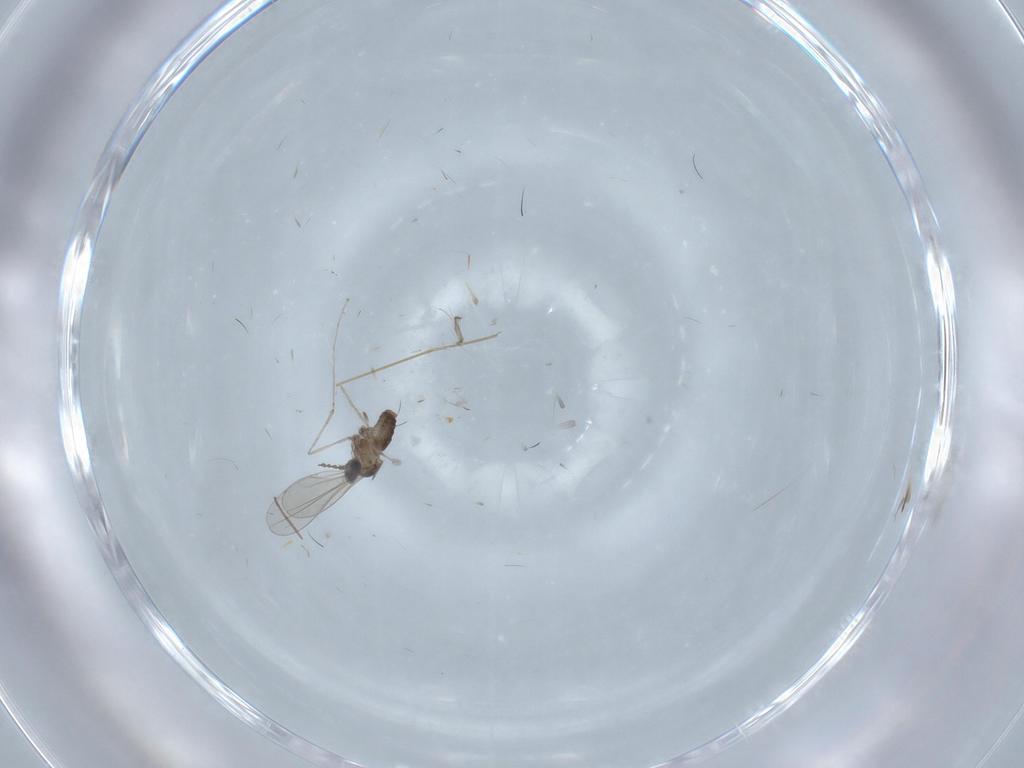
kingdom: Animalia
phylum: Arthropoda
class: Insecta
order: Diptera
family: Cecidomyiidae
